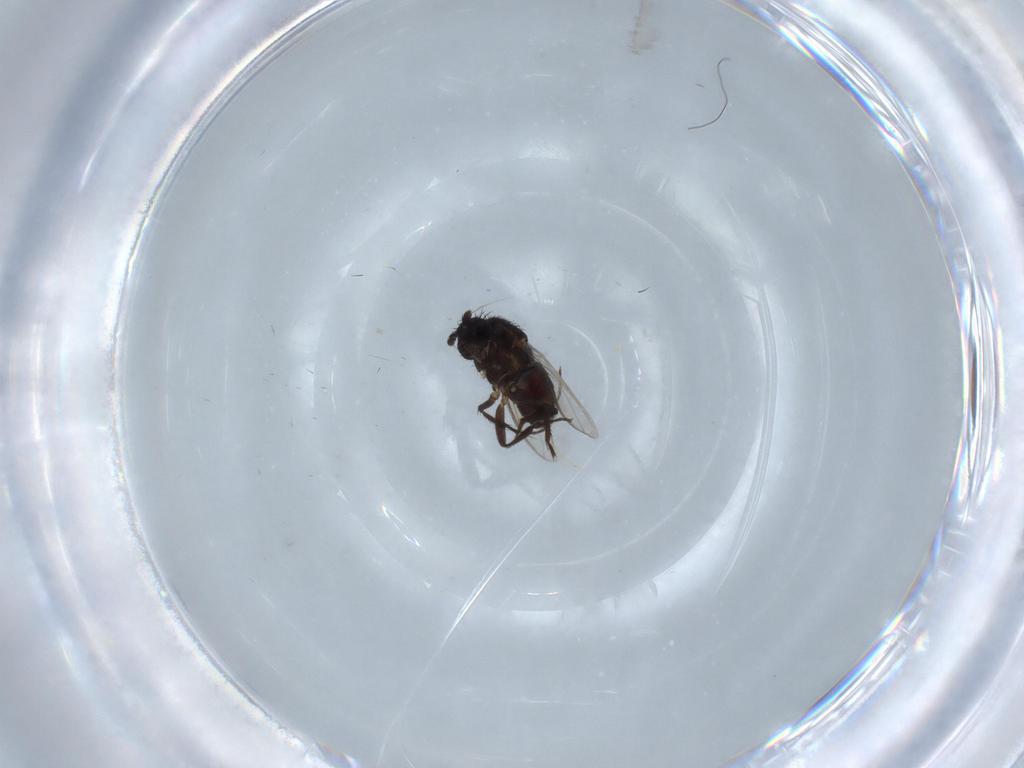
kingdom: Animalia
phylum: Arthropoda
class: Insecta
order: Diptera
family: Sphaeroceridae
